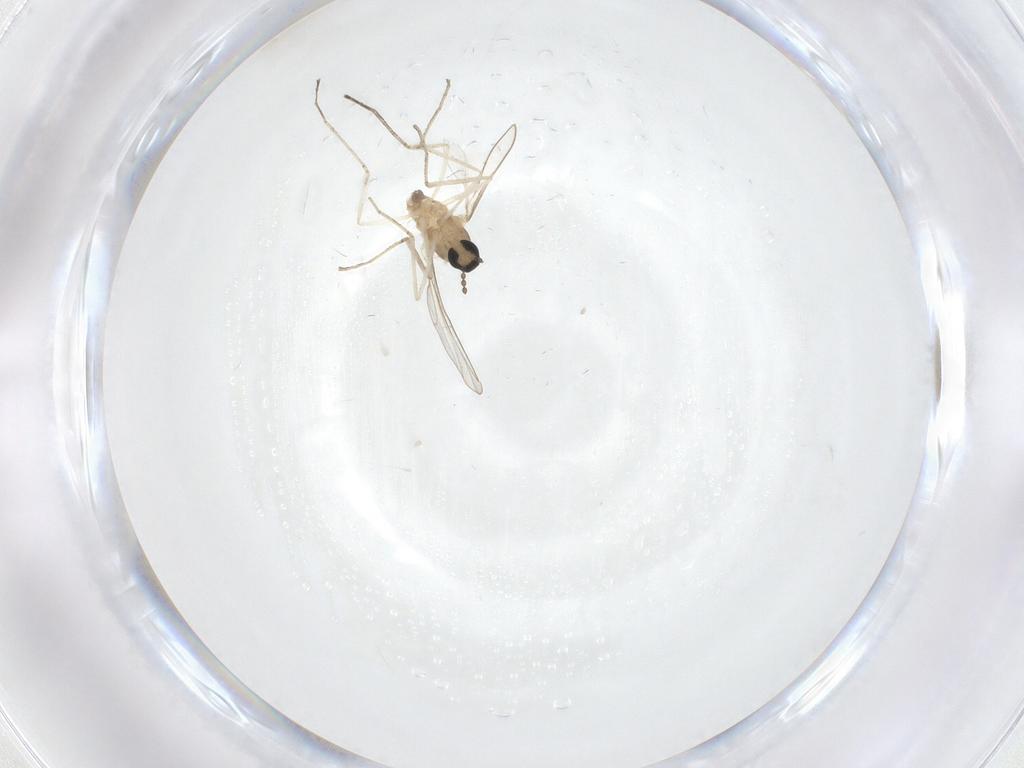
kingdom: Animalia
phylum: Arthropoda
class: Insecta
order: Diptera
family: Cecidomyiidae
